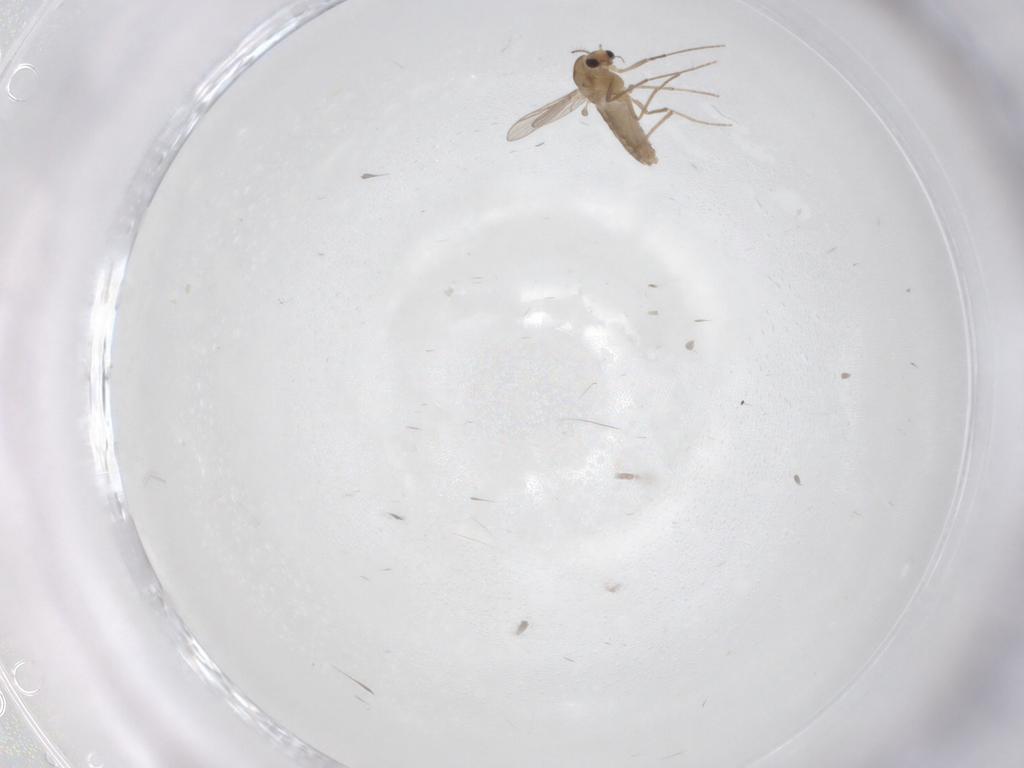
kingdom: Animalia
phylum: Arthropoda
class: Insecta
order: Diptera
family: Chironomidae
